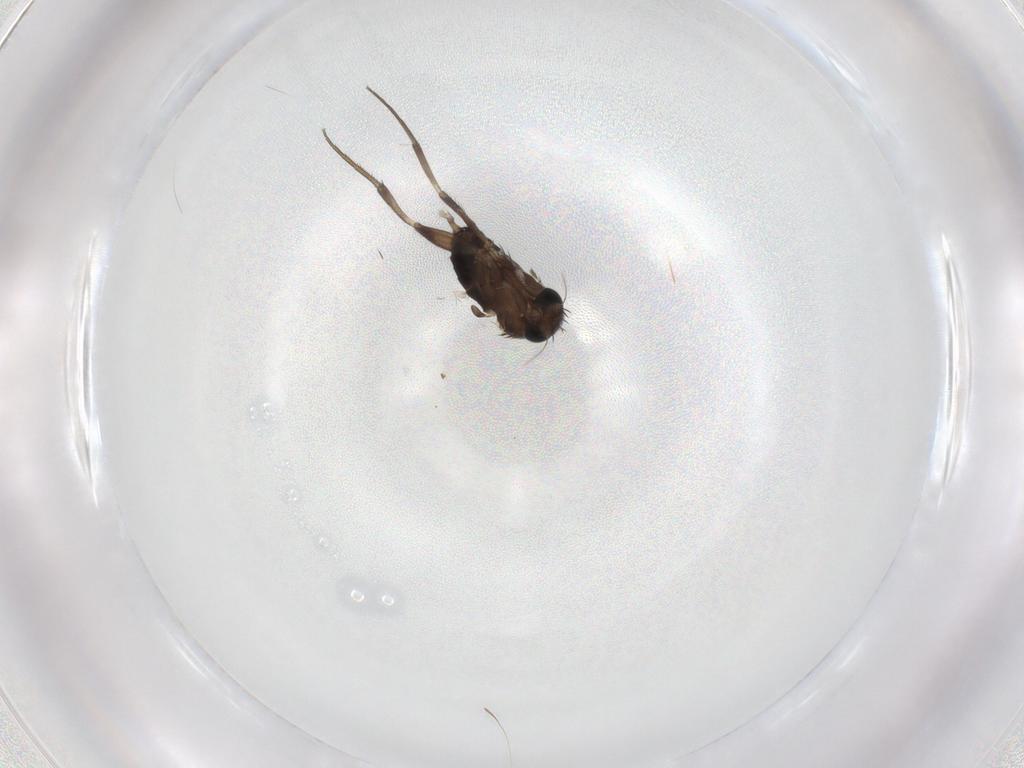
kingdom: Animalia
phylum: Arthropoda
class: Insecta
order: Diptera
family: Phoridae
